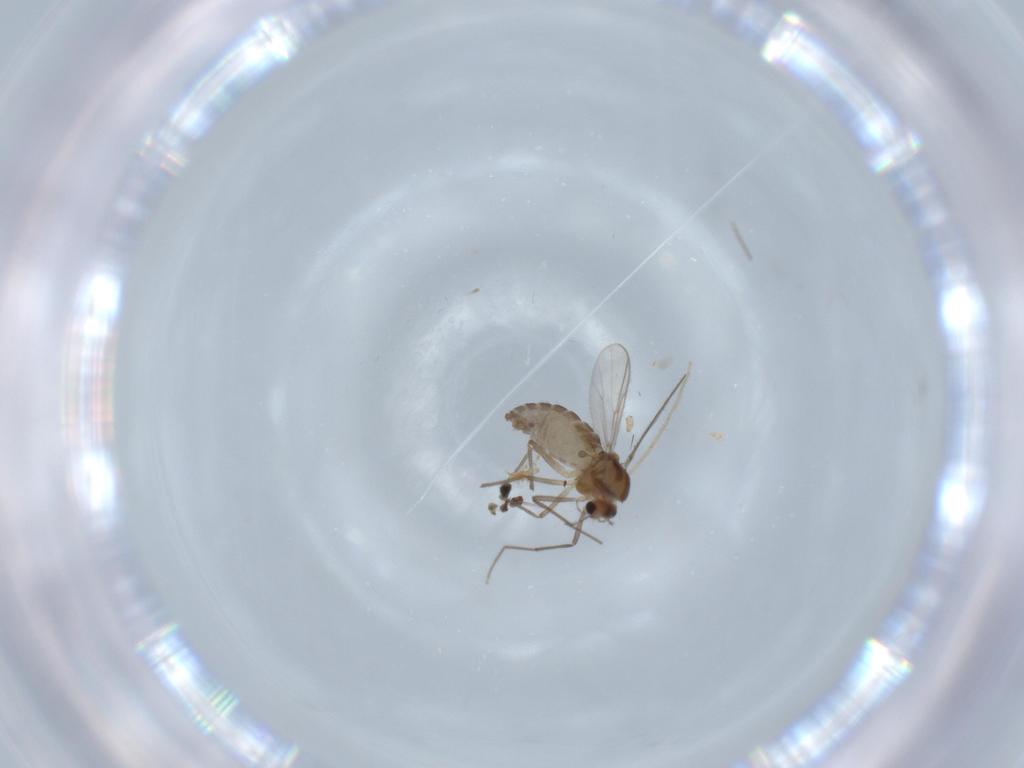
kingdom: Animalia
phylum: Arthropoda
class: Insecta
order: Diptera
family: Chironomidae
